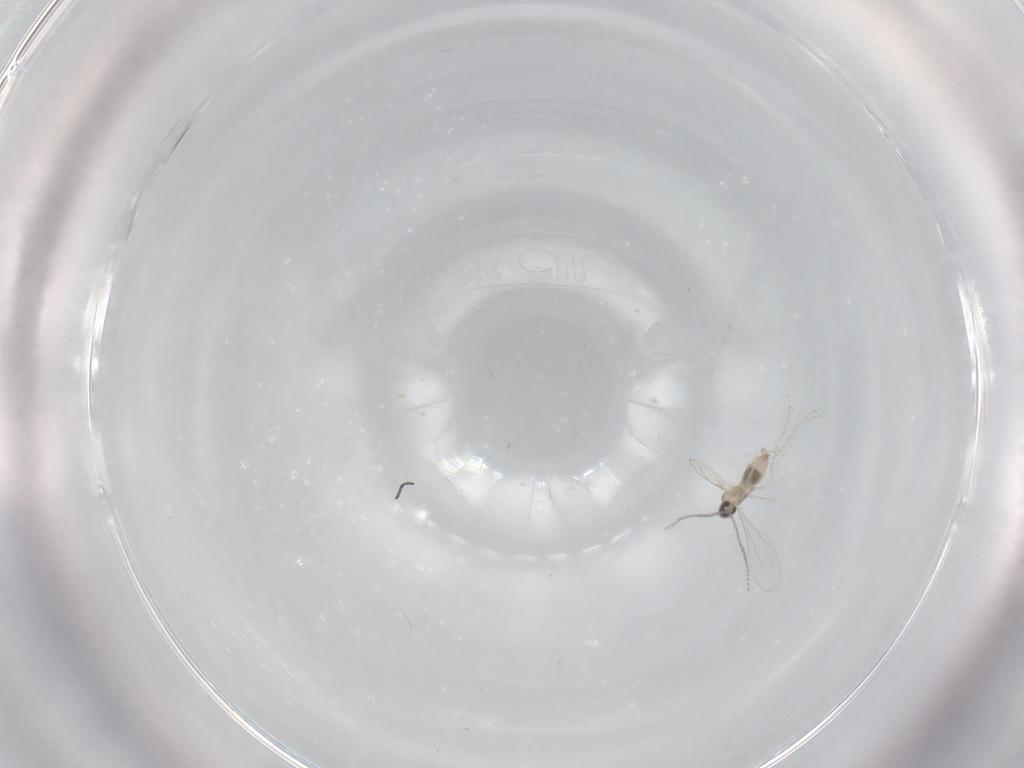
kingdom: Animalia
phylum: Arthropoda
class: Insecta
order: Diptera
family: Cecidomyiidae
